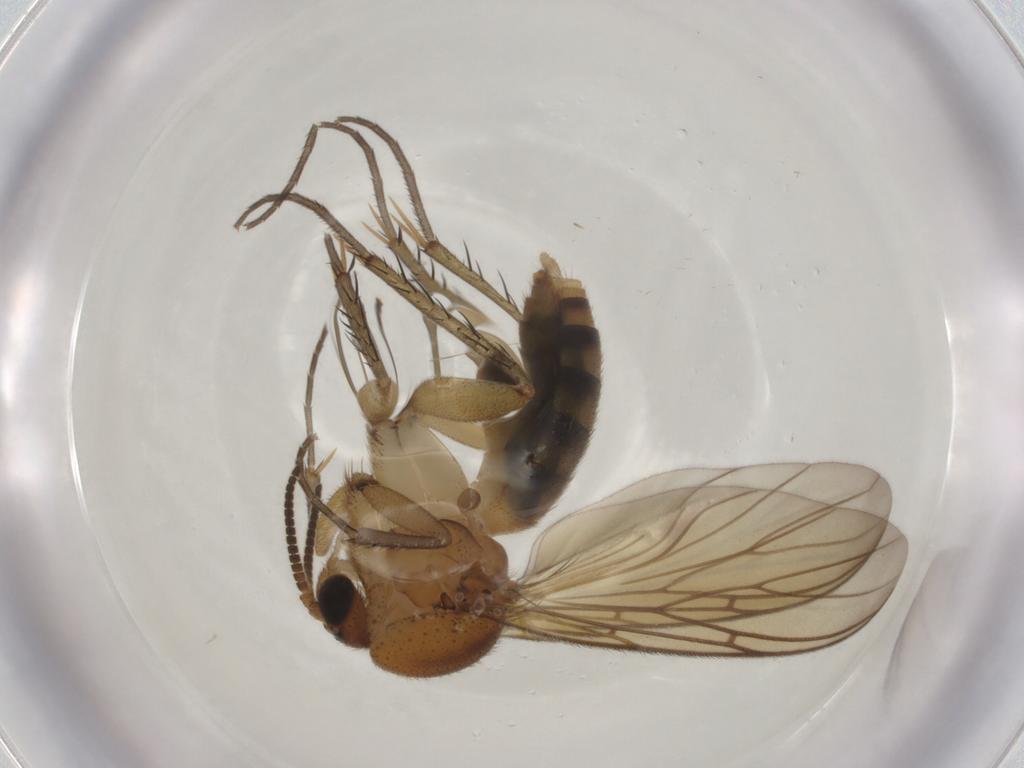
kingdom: Animalia
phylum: Arthropoda
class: Insecta
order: Diptera
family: Mycetophilidae
